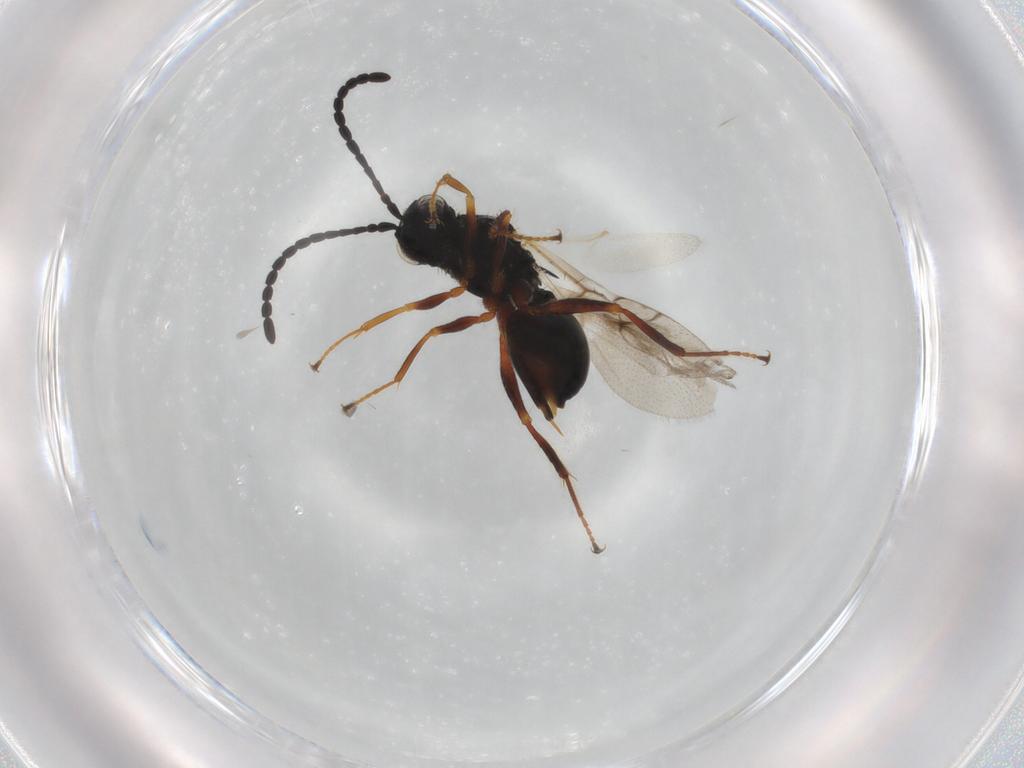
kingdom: Animalia
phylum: Arthropoda
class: Insecta
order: Hymenoptera
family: Figitidae
